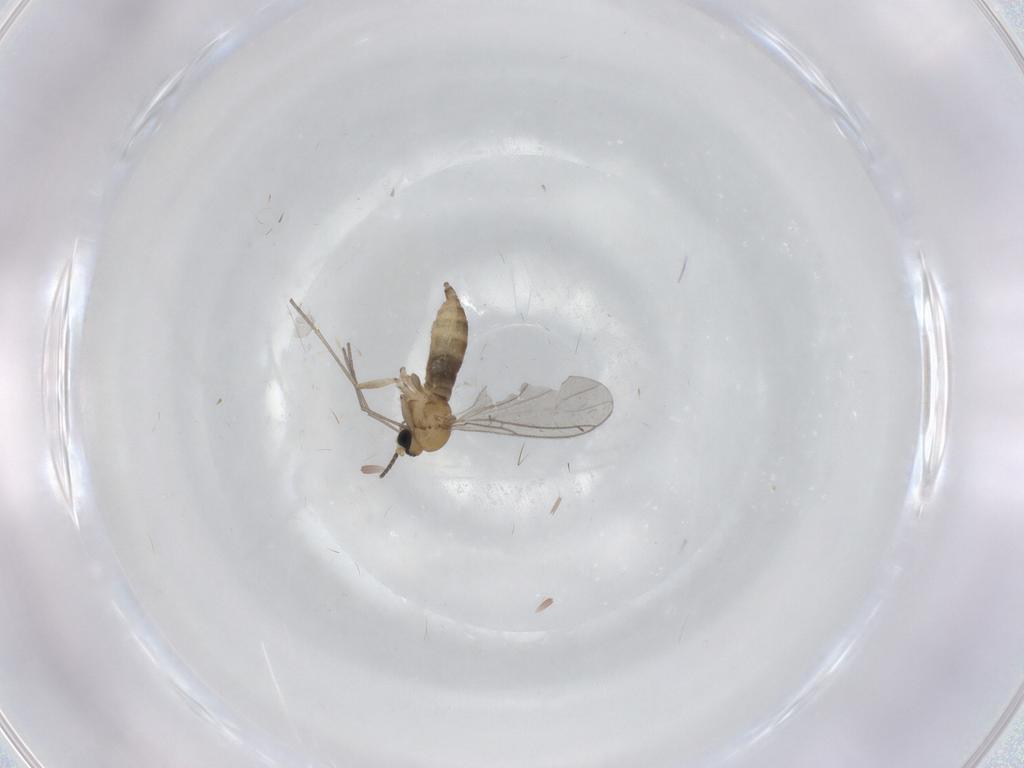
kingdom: Animalia
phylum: Arthropoda
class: Insecta
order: Diptera
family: Sciaridae
